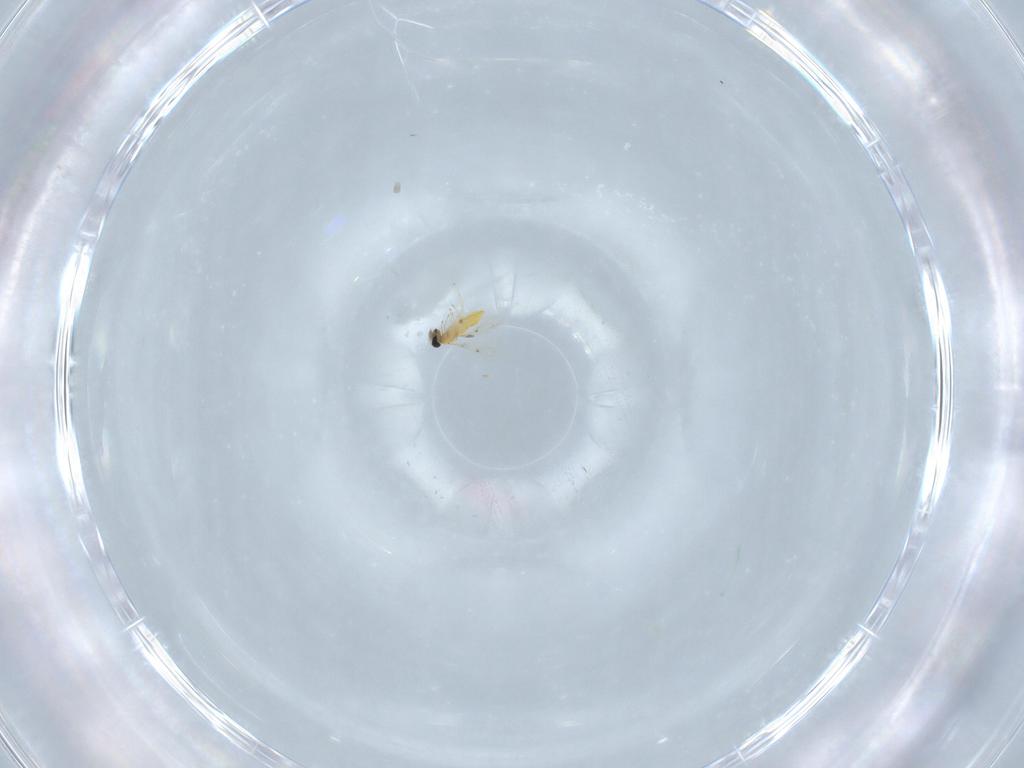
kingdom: Animalia
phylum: Arthropoda
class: Insecta
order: Hymenoptera
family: Trichogrammatidae
